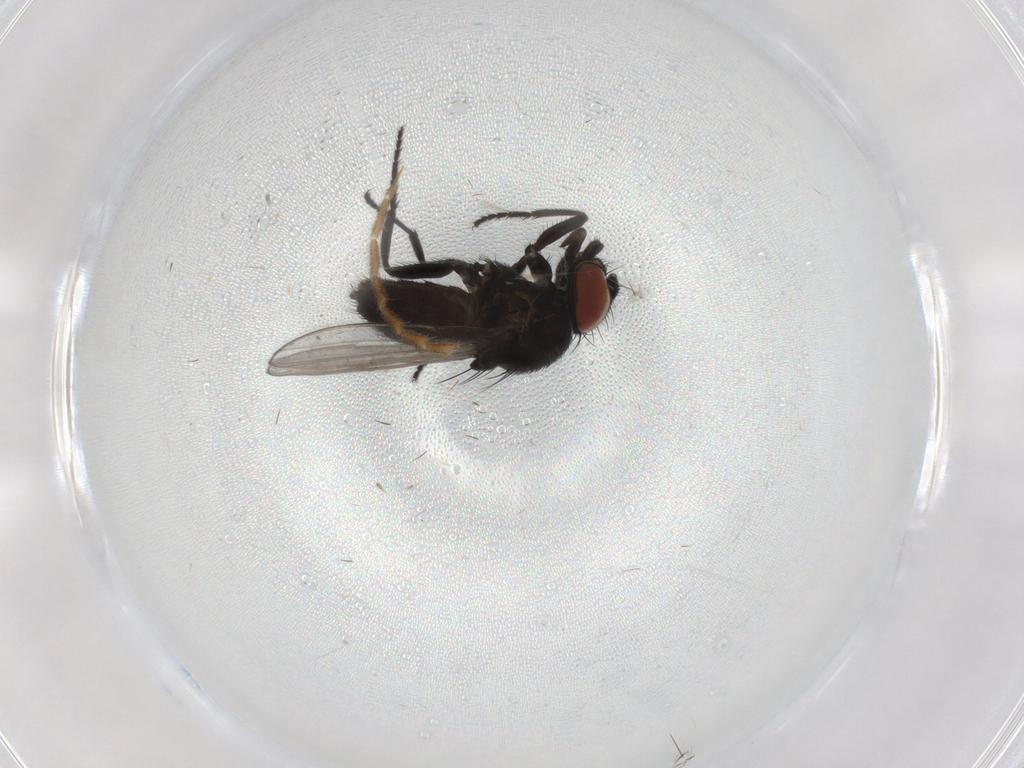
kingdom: Animalia
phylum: Arthropoda
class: Insecta
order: Diptera
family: Milichiidae
